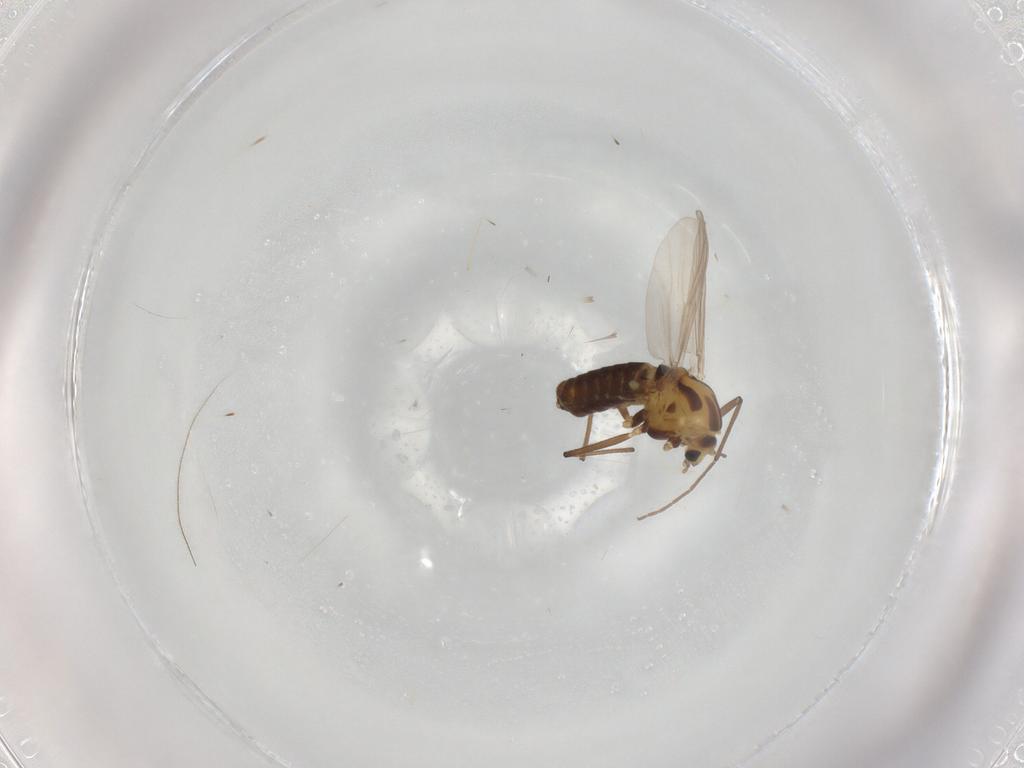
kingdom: Animalia
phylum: Arthropoda
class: Insecta
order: Diptera
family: Chironomidae
